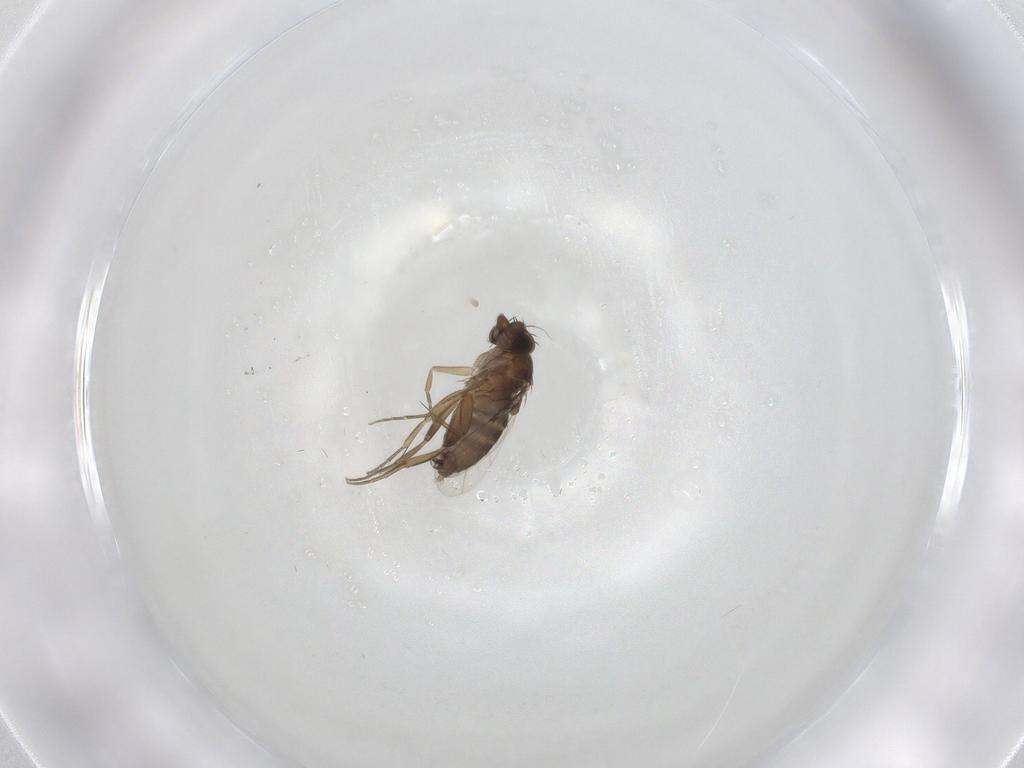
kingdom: Animalia
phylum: Arthropoda
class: Insecta
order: Diptera
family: Phoridae
